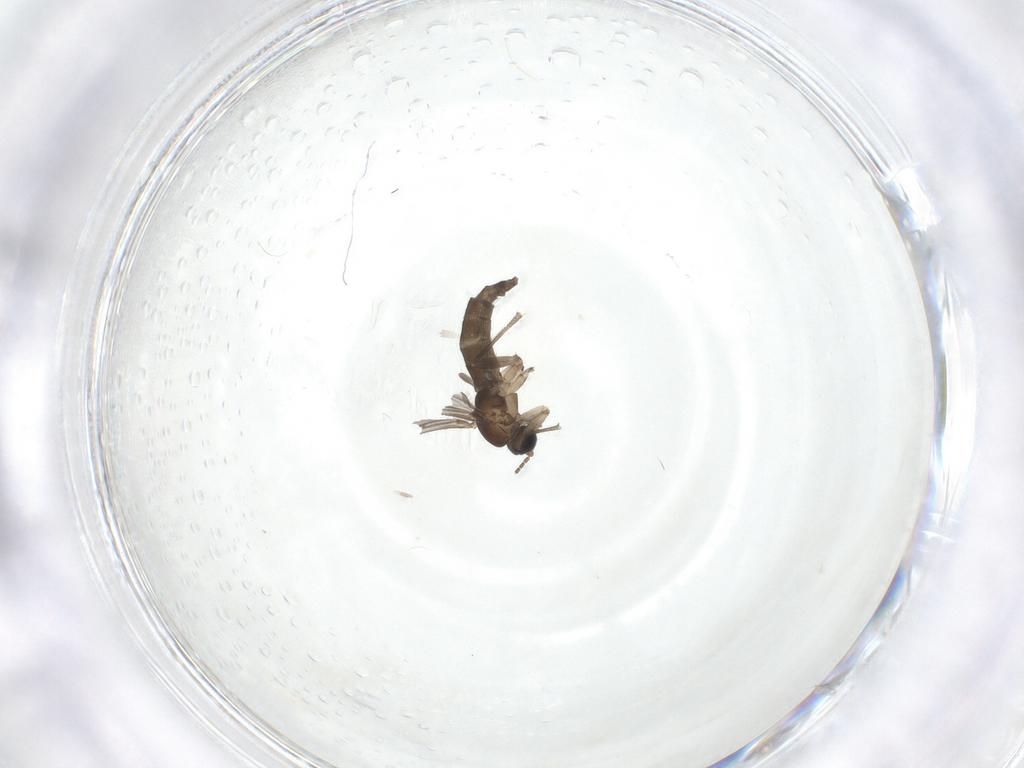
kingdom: Animalia
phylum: Arthropoda
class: Insecta
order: Diptera
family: Sciaridae
